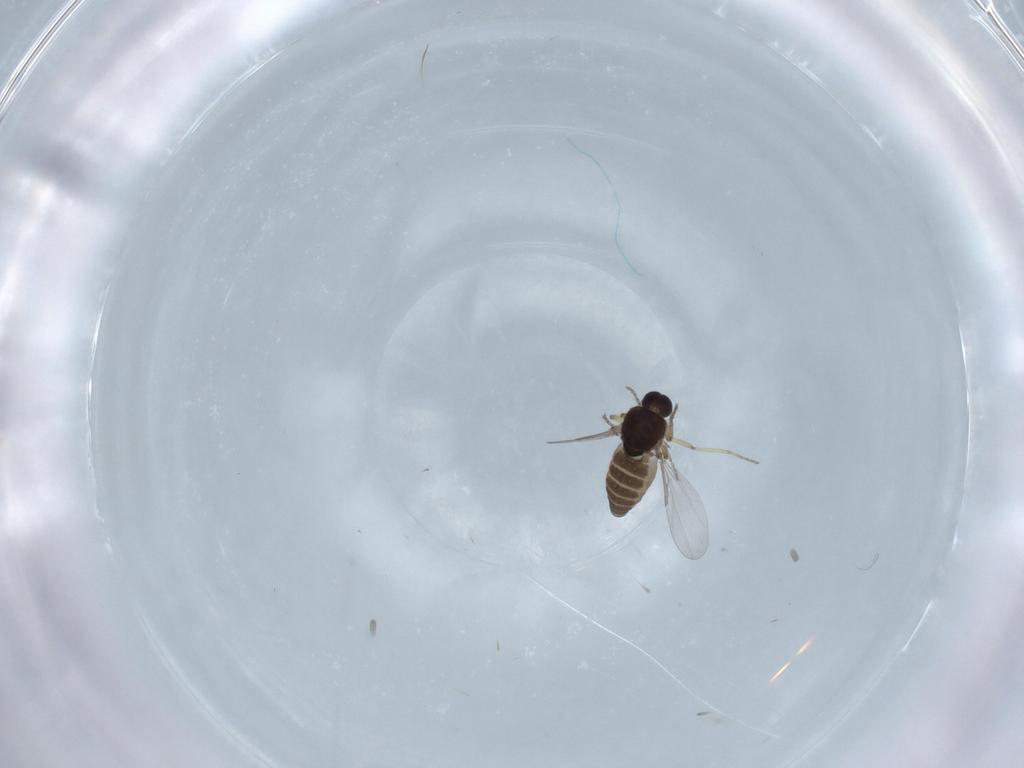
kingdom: Animalia
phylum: Arthropoda
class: Insecta
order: Diptera
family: Ceratopogonidae
